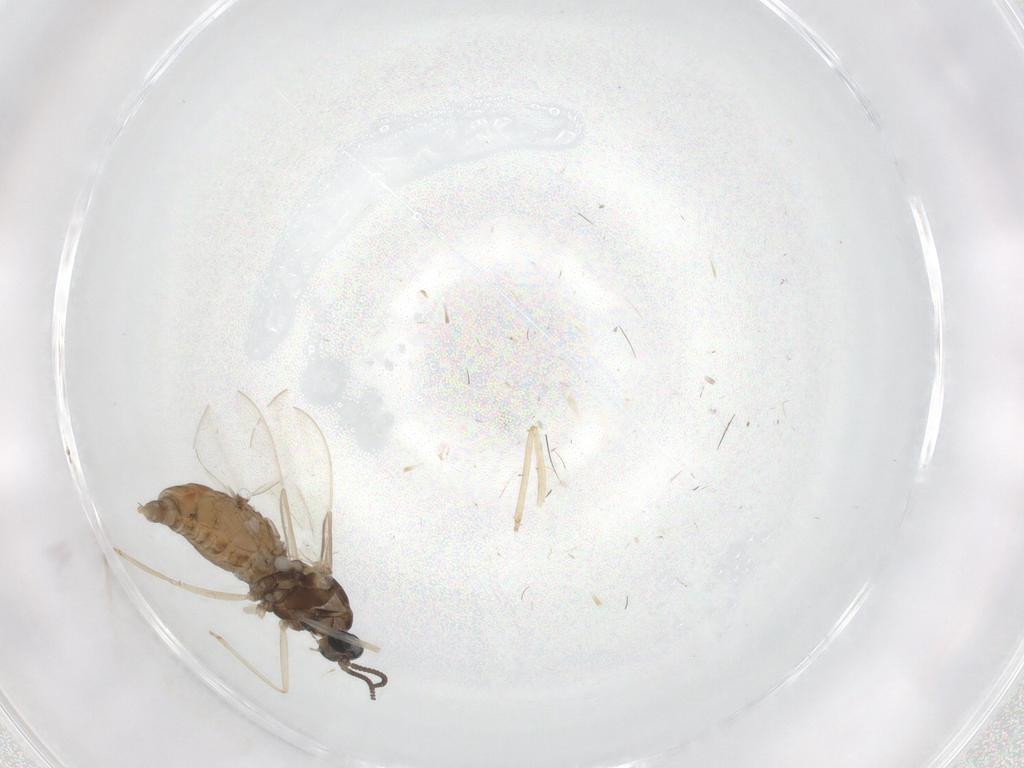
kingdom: Animalia
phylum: Arthropoda
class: Insecta
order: Diptera
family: Cecidomyiidae
